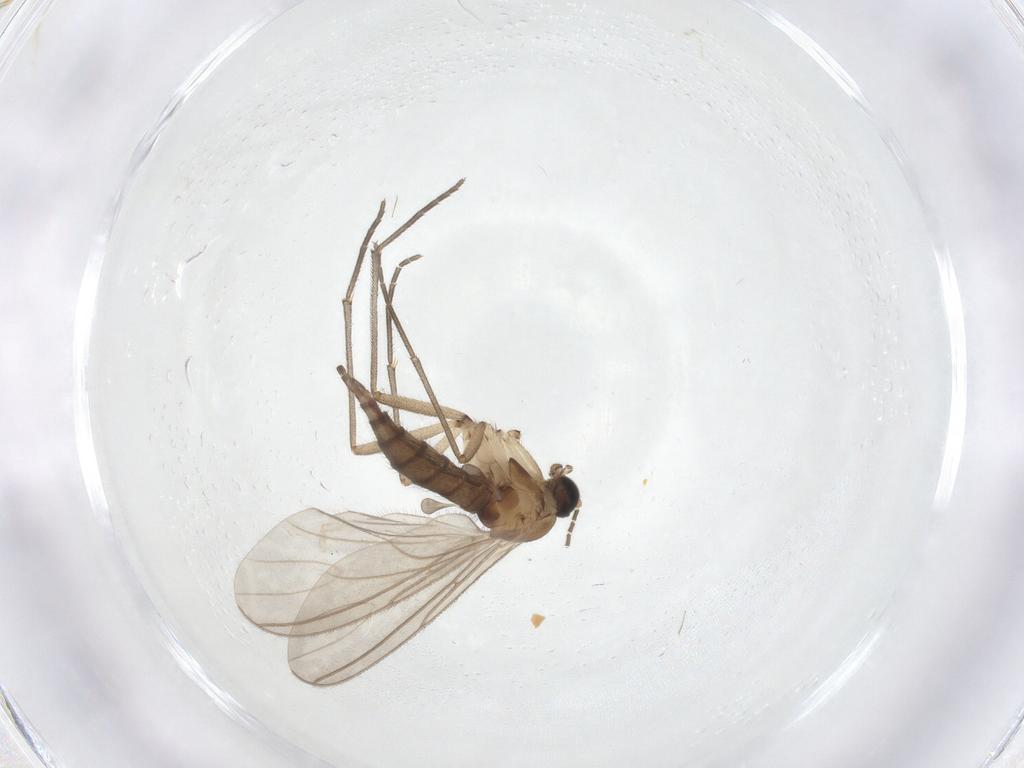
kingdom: Animalia
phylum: Arthropoda
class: Insecta
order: Diptera
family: Sciaridae
